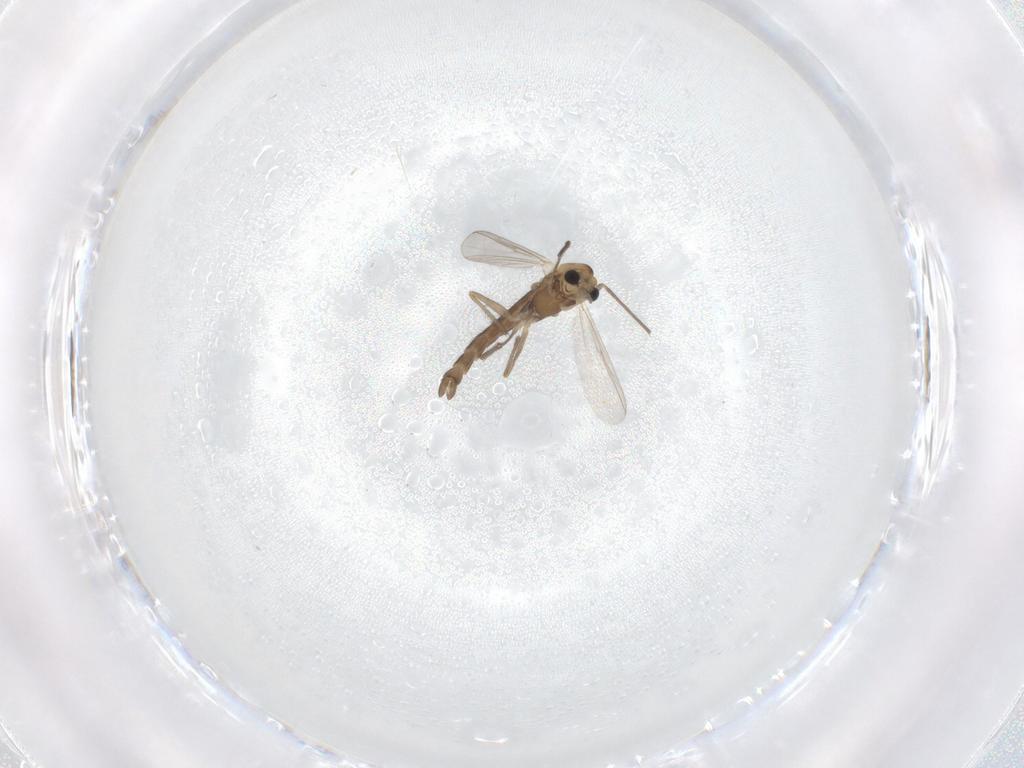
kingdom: Animalia
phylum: Arthropoda
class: Insecta
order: Diptera
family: Chironomidae
